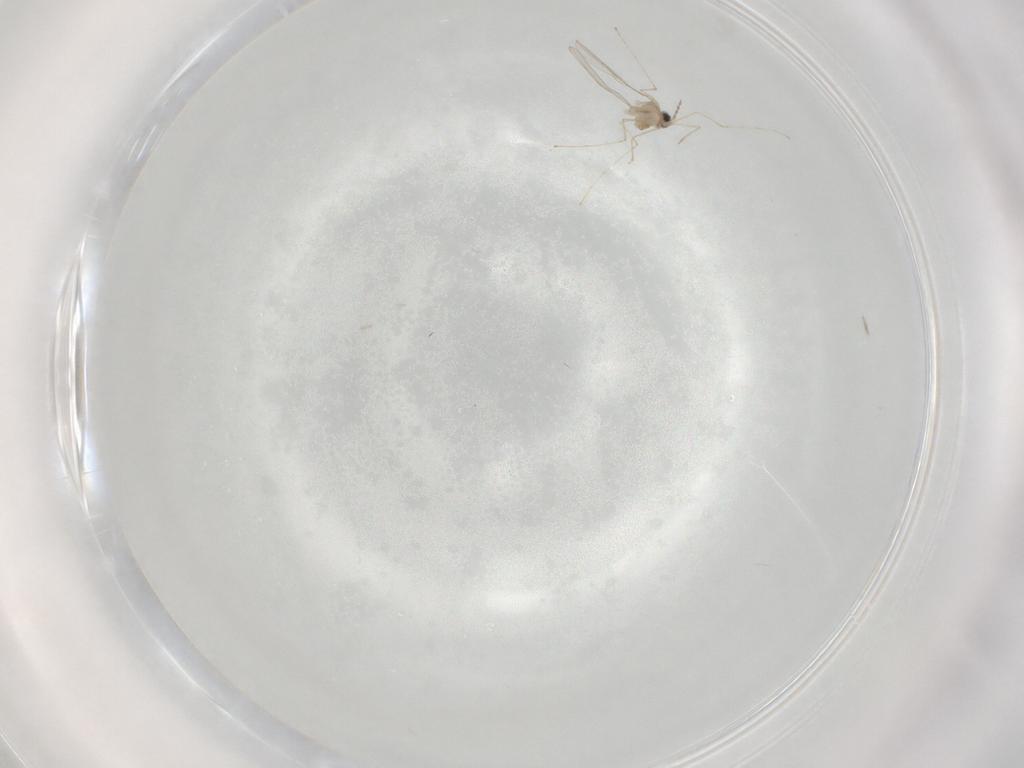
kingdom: Animalia
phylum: Arthropoda
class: Insecta
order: Diptera
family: Cecidomyiidae
